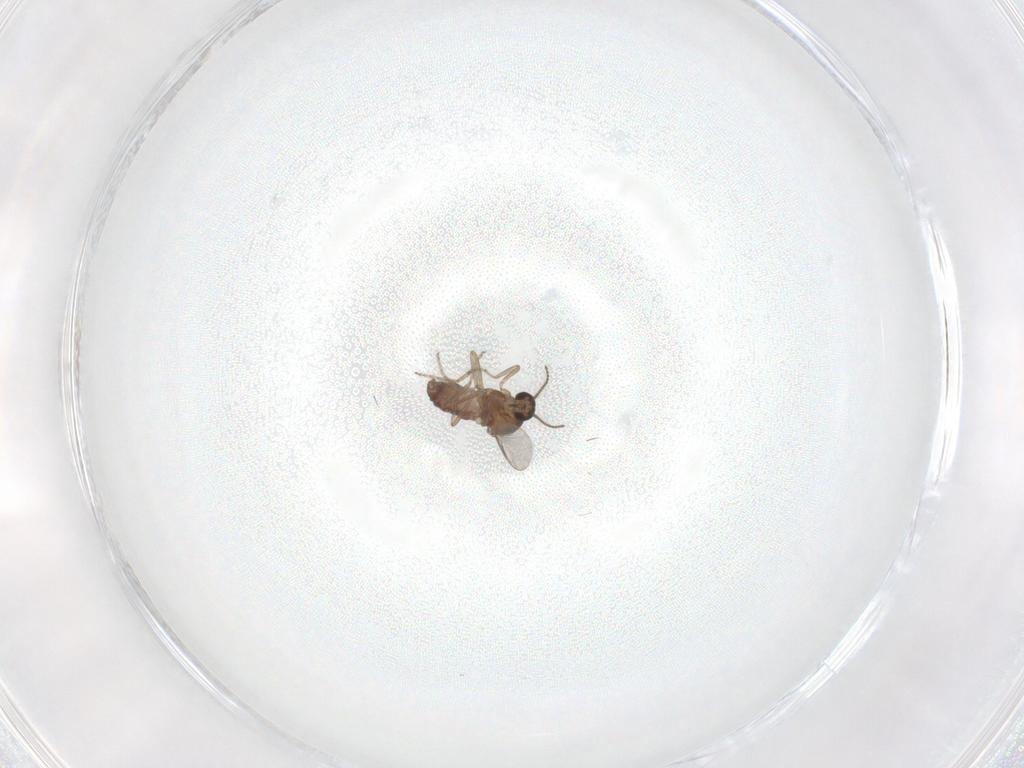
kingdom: Animalia
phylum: Arthropoda
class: Insecta
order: Diptera
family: Ceratopogonidae
